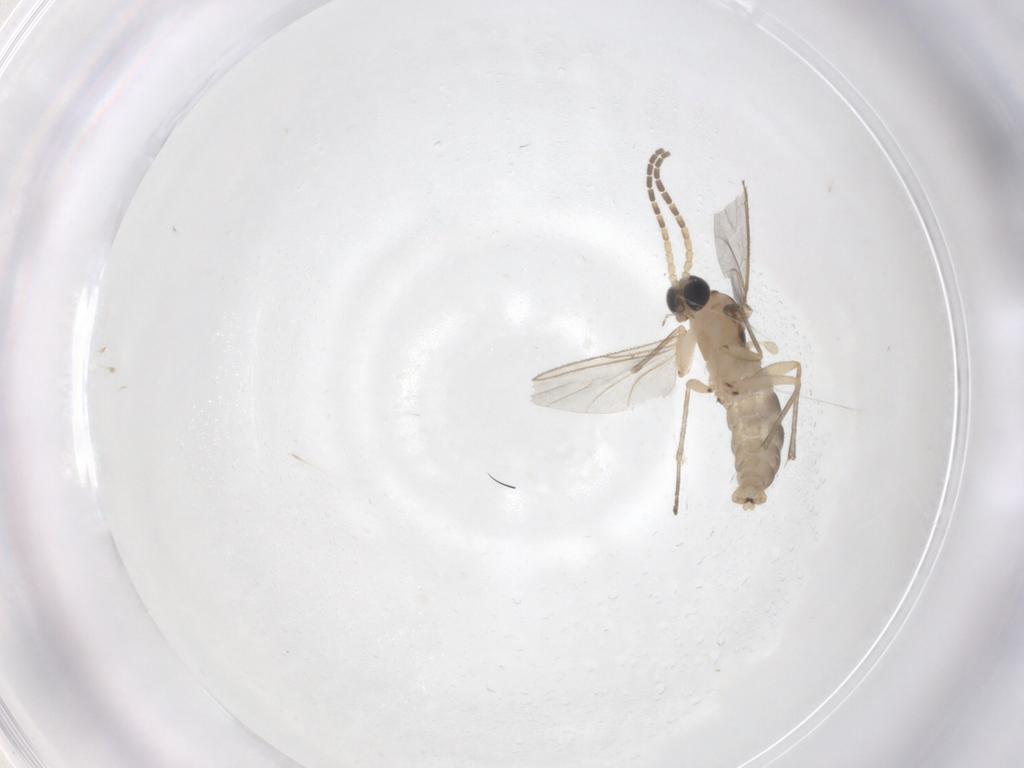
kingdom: Animalia
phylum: Arthropoda
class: Insecta
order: Diptera
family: Sciaridae
